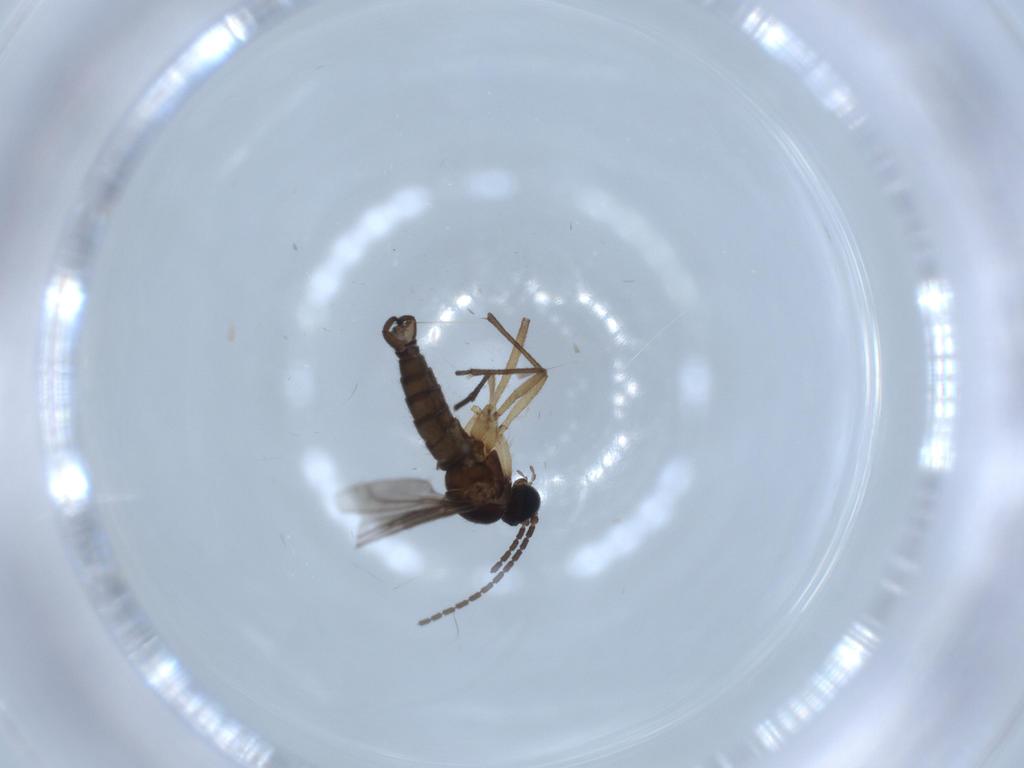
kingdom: Animalia
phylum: Arthropoda
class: Insecta
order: Diptera
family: Sciaridae
